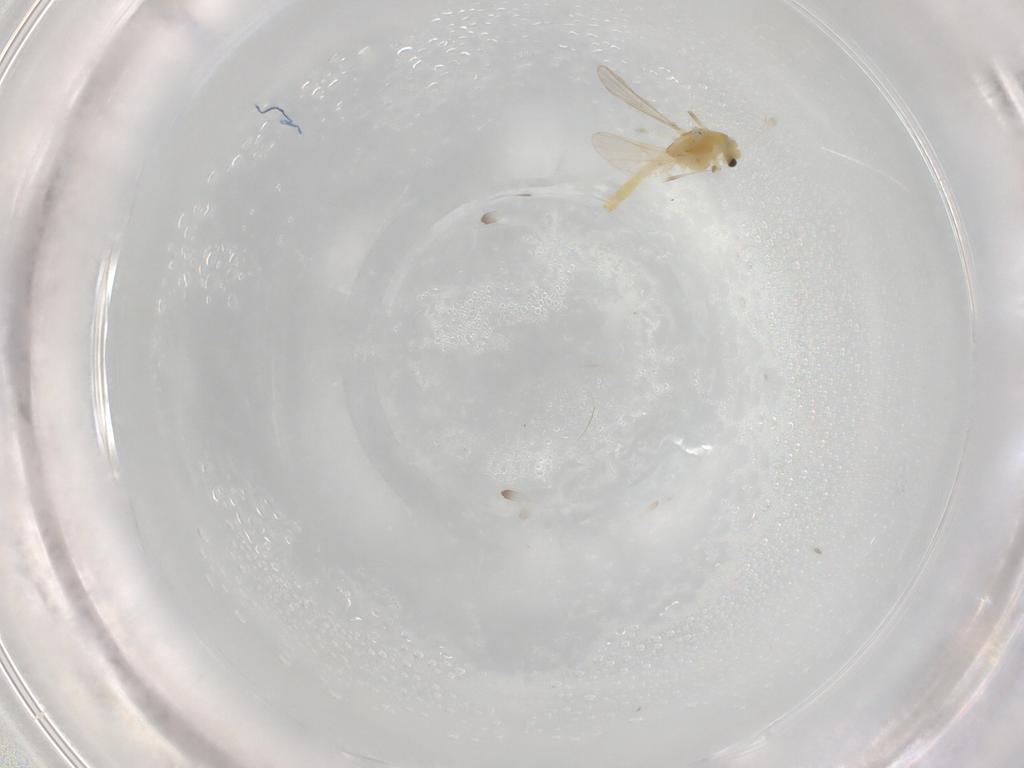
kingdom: Animalia
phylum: Arthropoda
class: Insecta
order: Diptera
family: Chironomidae
